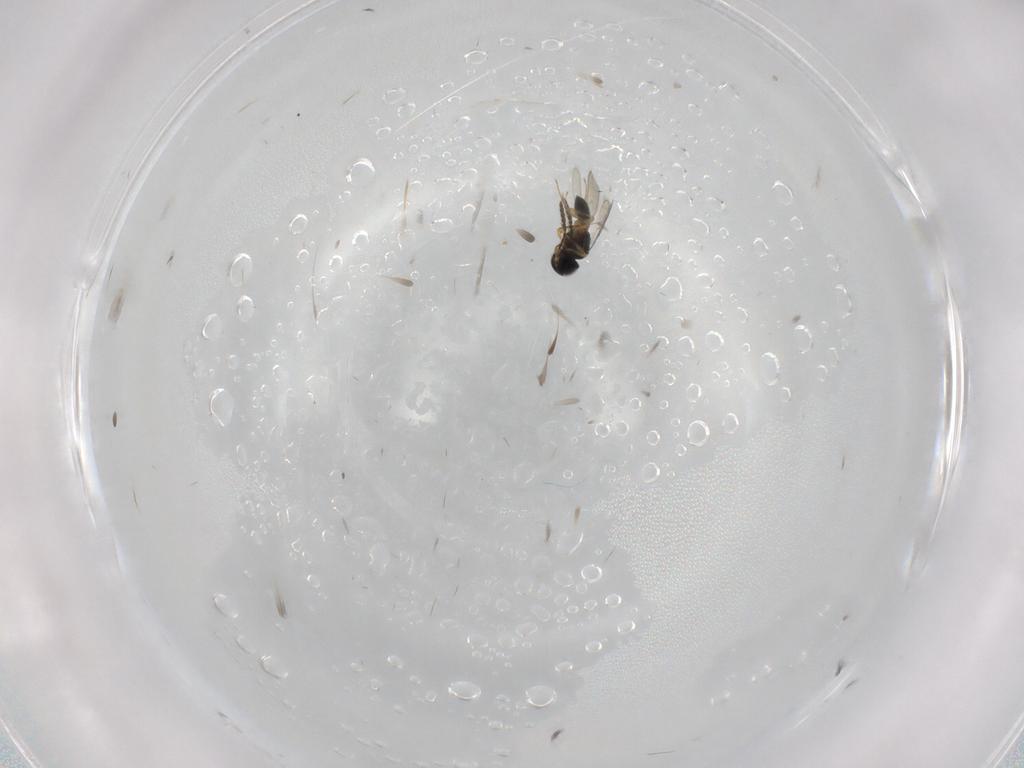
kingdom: Animalia
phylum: Arthropoda
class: Insecta
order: Hymenoptera
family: Scelionidae
